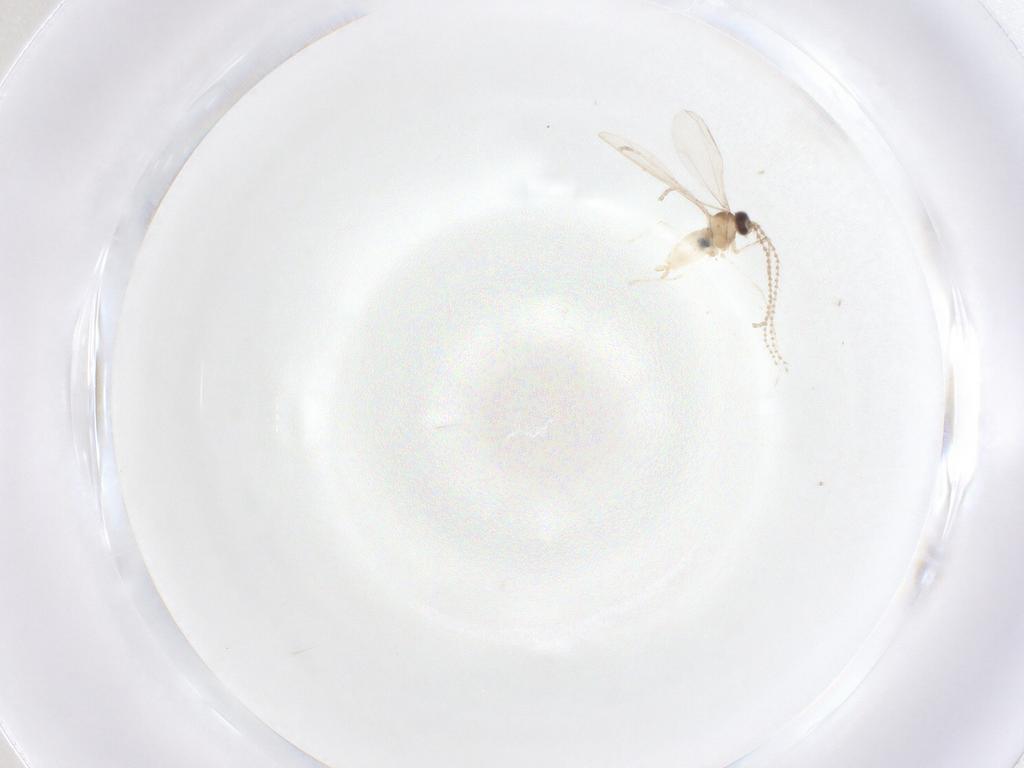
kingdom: Animalia
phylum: Arthropoda
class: Insecta
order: Diptera
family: Cecidomyiidae
